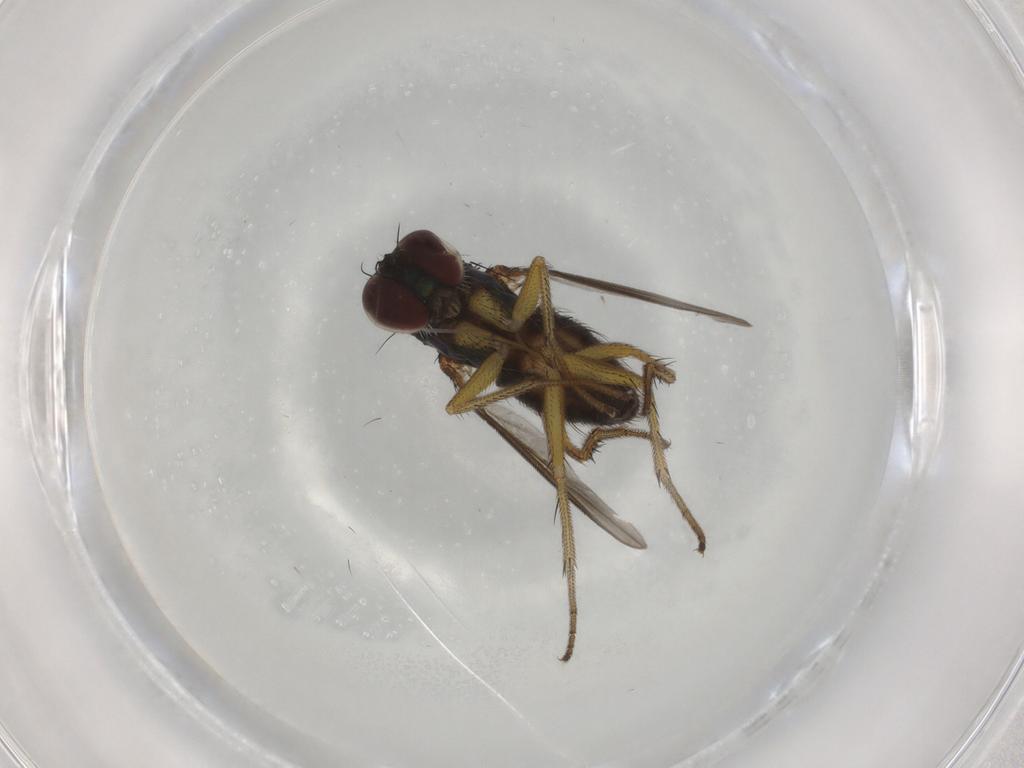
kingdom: Animalia
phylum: Arthropoda
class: Insecta
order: Diptera
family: Dolichopodidae
